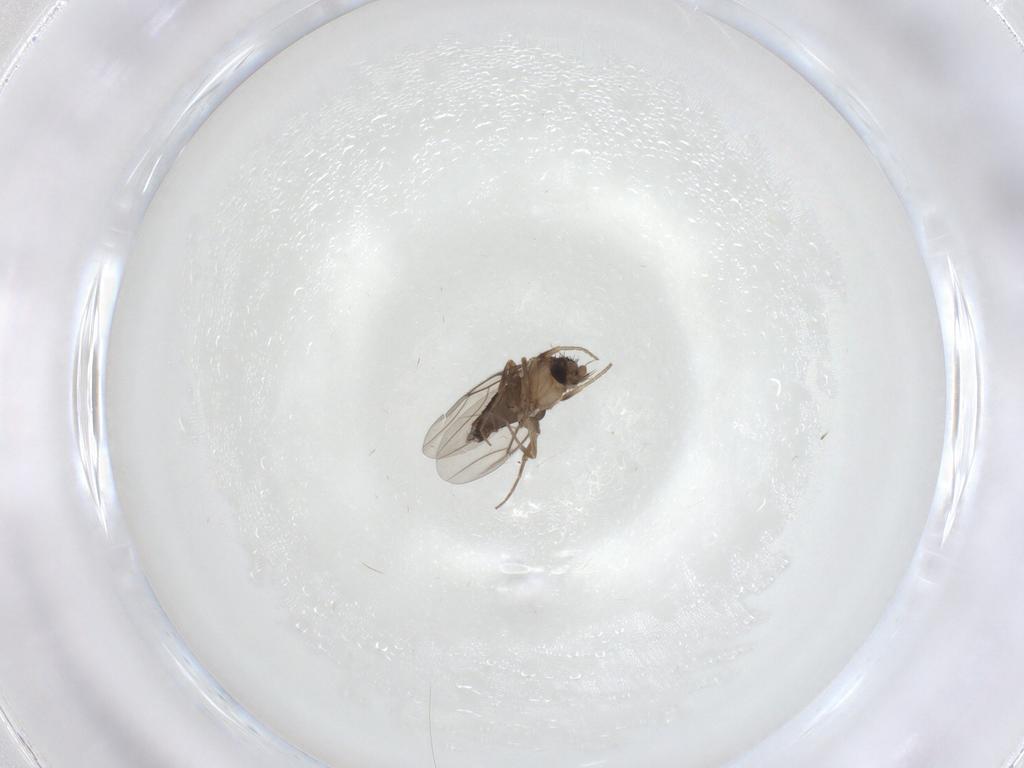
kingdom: Animalia
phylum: Arthropoda
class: Insecta
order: Diptera
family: Phoridae
